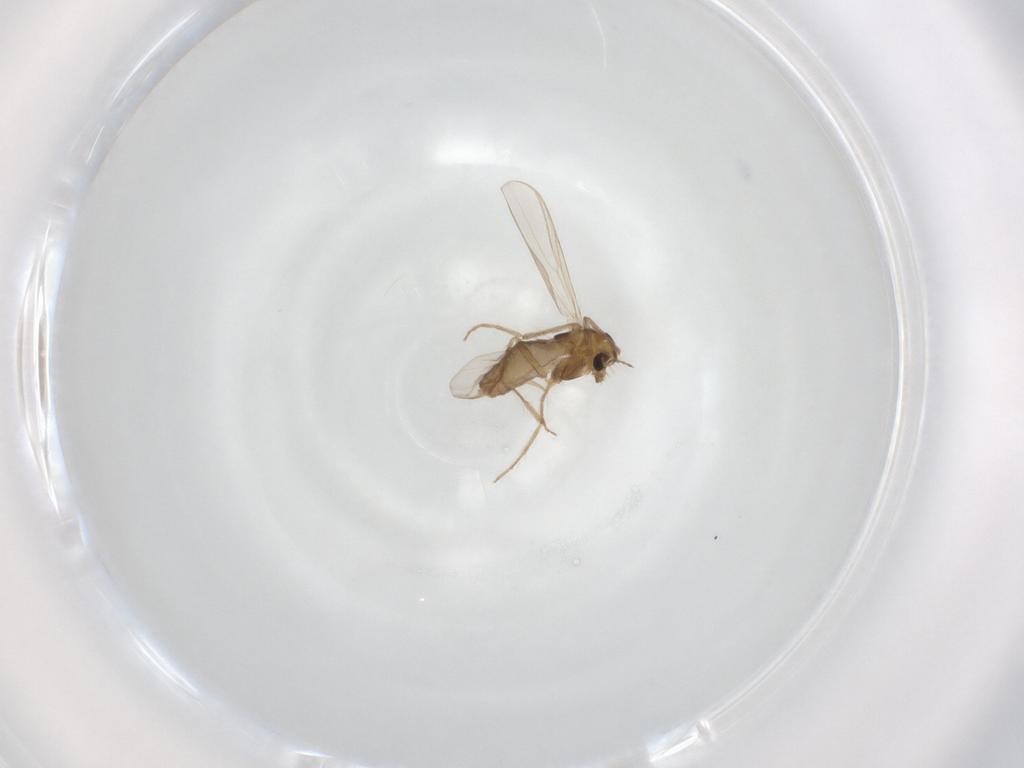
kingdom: Animalia
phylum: Arthropoda
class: Insecta
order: Diptera
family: Chironomidae
